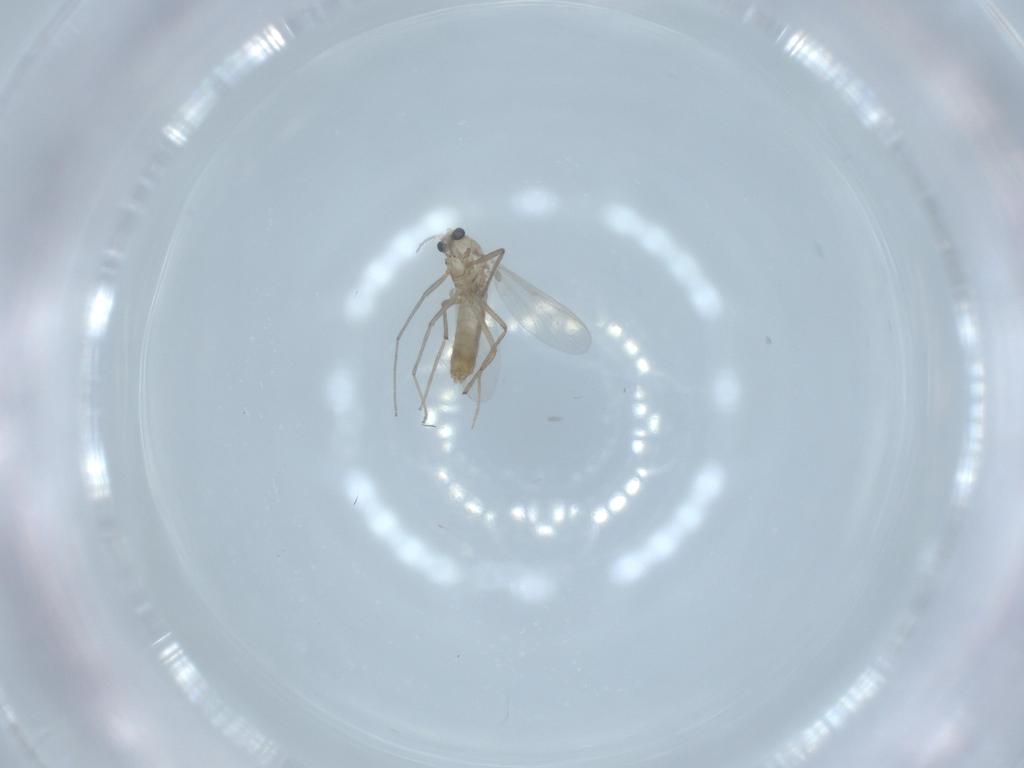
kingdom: Animalia
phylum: Arthropoda
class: Insecta
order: Diptera
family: Chironomidae
